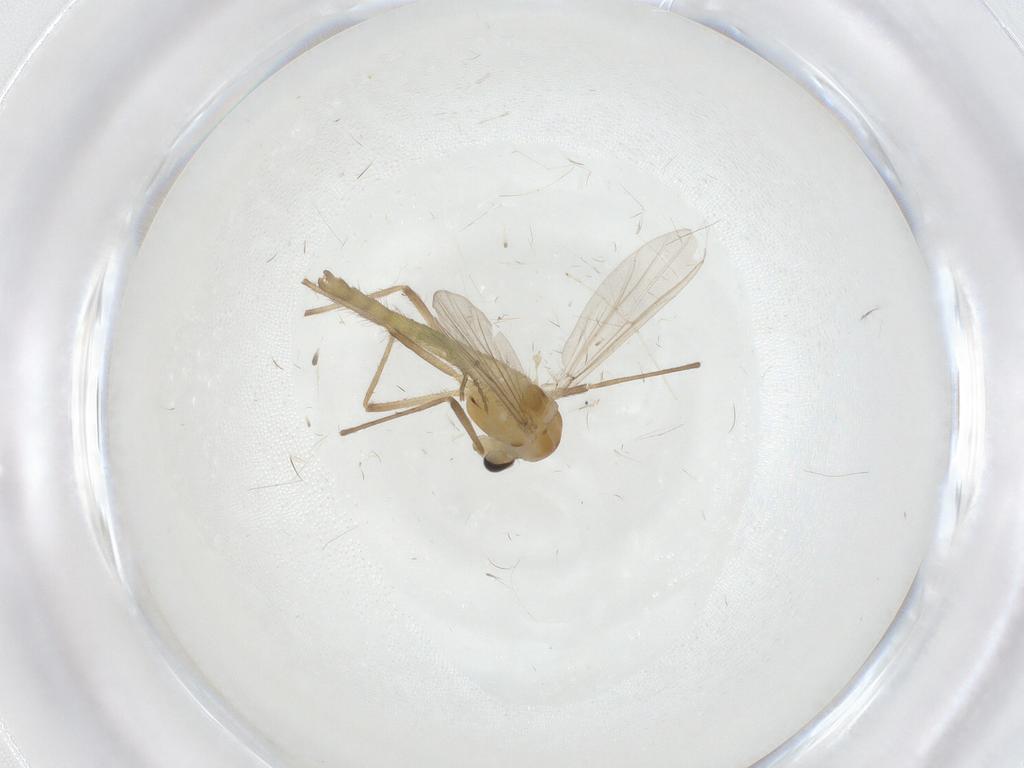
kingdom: Animalia
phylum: Arthropoda
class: Insecta
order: Diptera
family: Chironomidae
